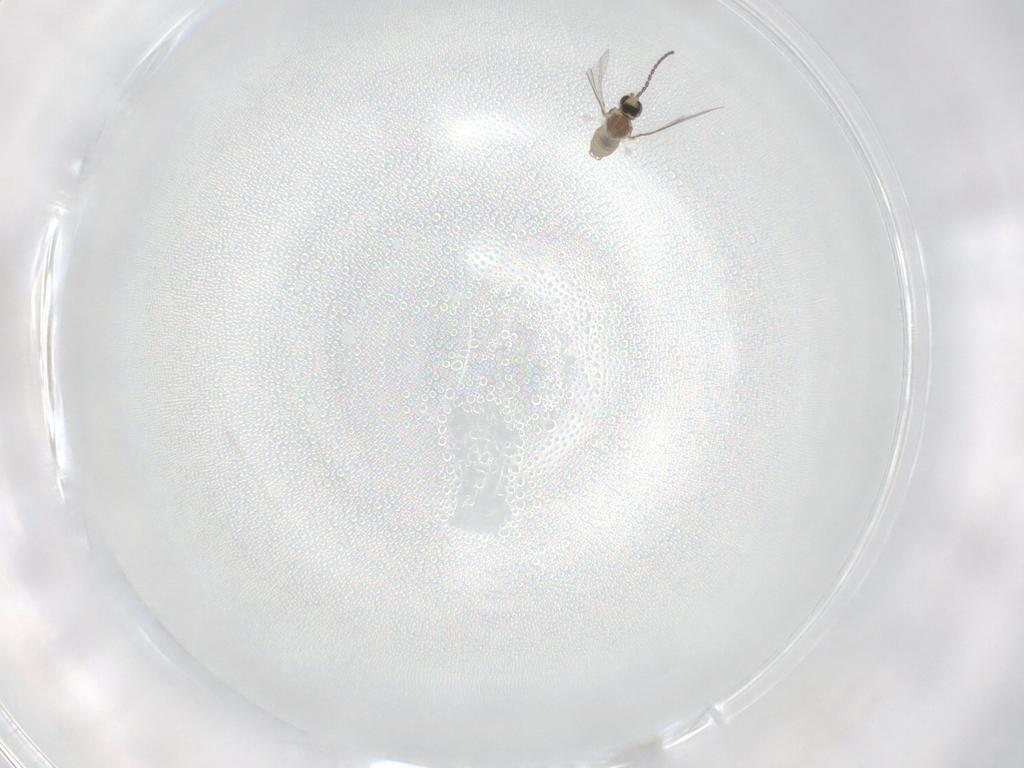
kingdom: Animalia
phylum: Arthropoda
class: Insecta
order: Diptera
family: Cecidomyiidae
